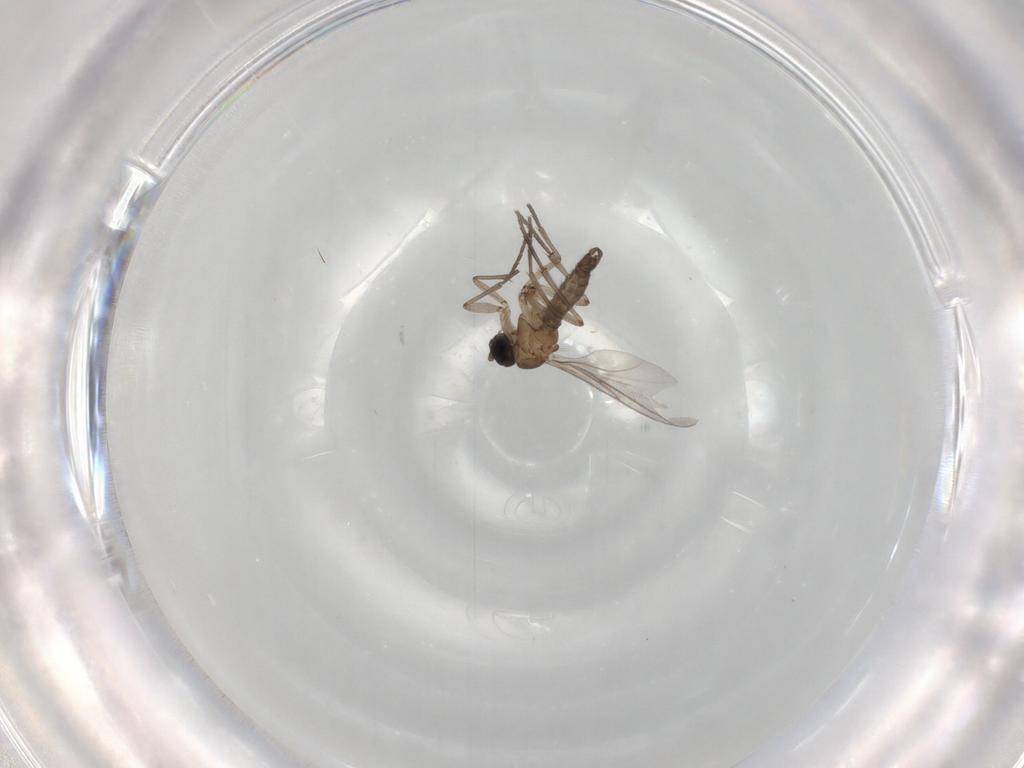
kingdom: Animalia
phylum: Arthropoda
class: Insecta
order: Diptera
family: Sciaridae
